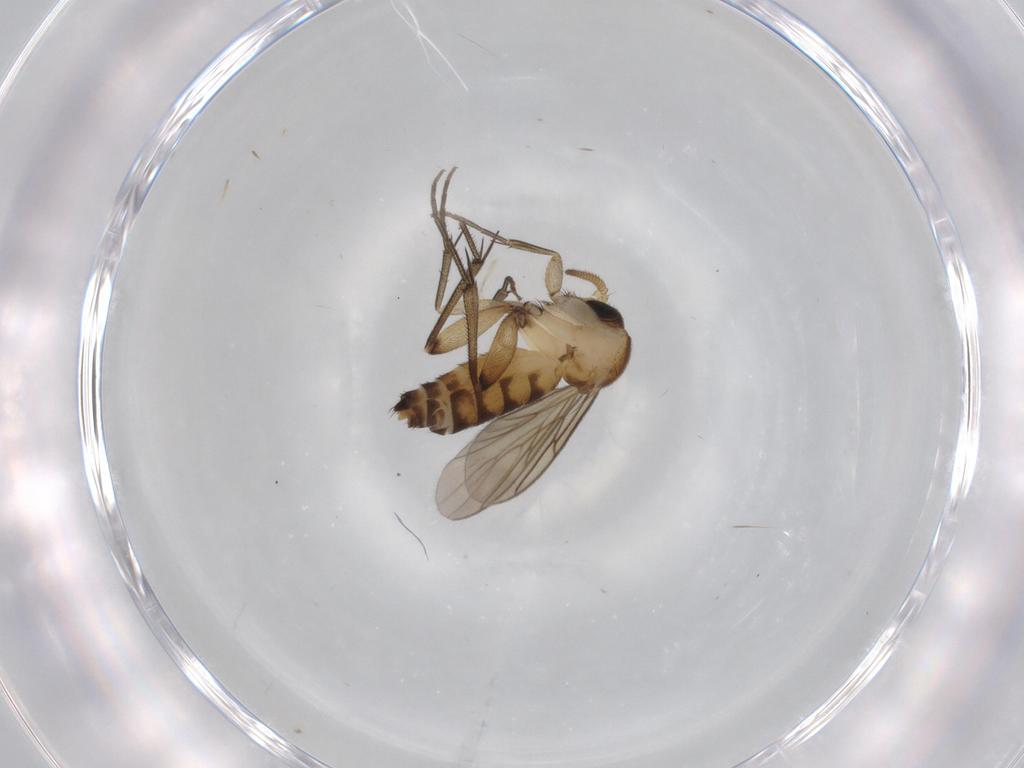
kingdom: Animalia
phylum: Arthropoda
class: Insecta
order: Diptera
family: Mycetophilidae
